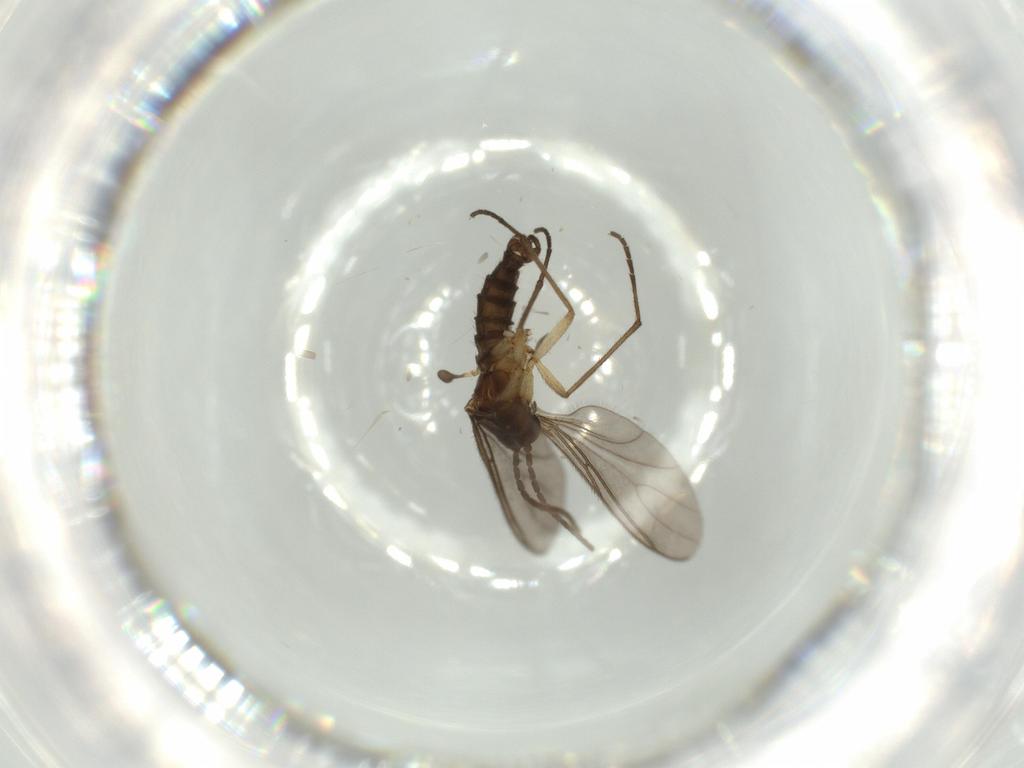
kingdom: Animalia
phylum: Arthropoda
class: Insecta
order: Diptera
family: Sciaridae
